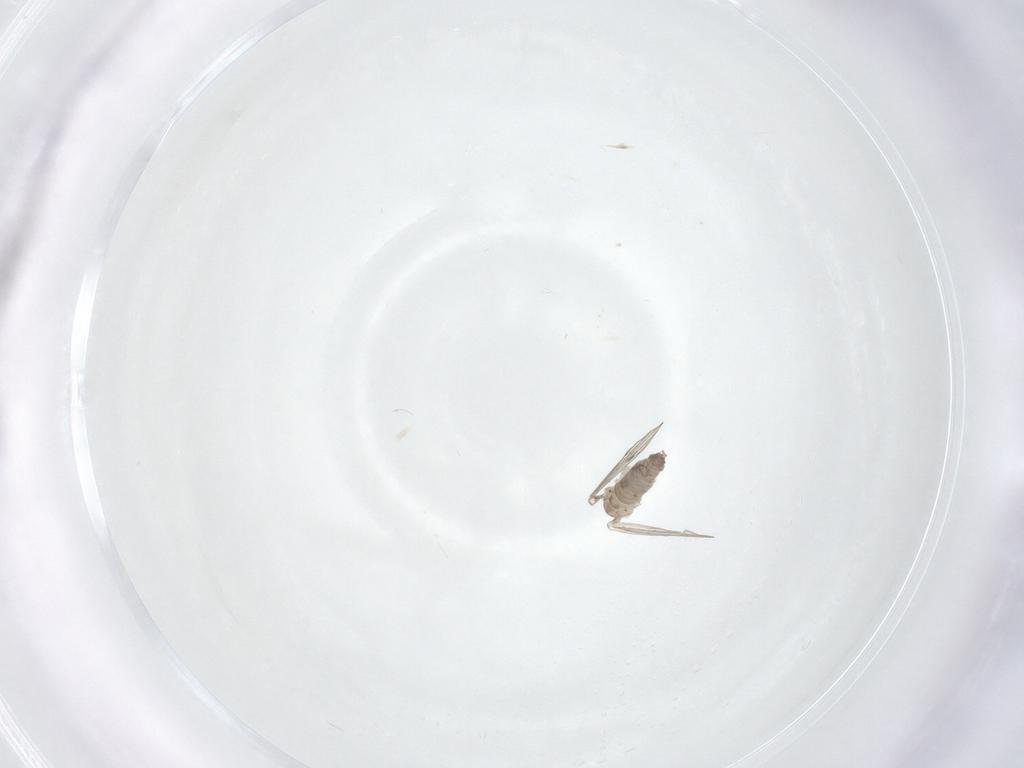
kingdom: Animalia
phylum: Arthropoda
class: Insecta
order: Diptera
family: Psychodidae
